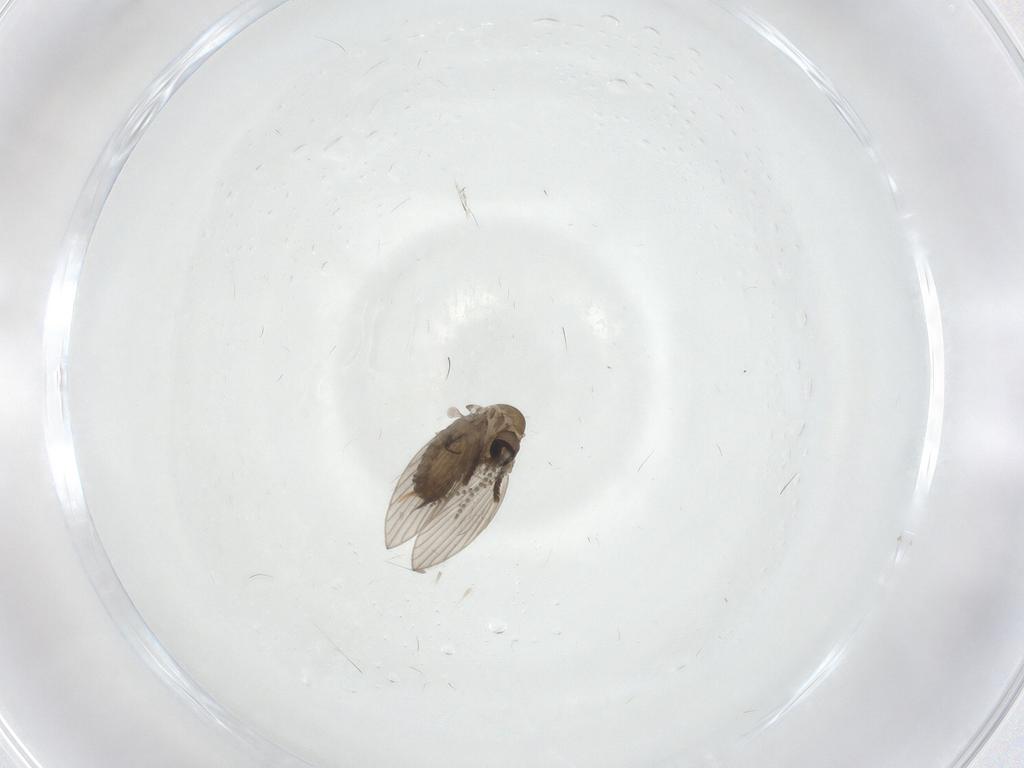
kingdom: Animalia
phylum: Arthropoda
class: Insecta
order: Diptera
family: Psychodidae
